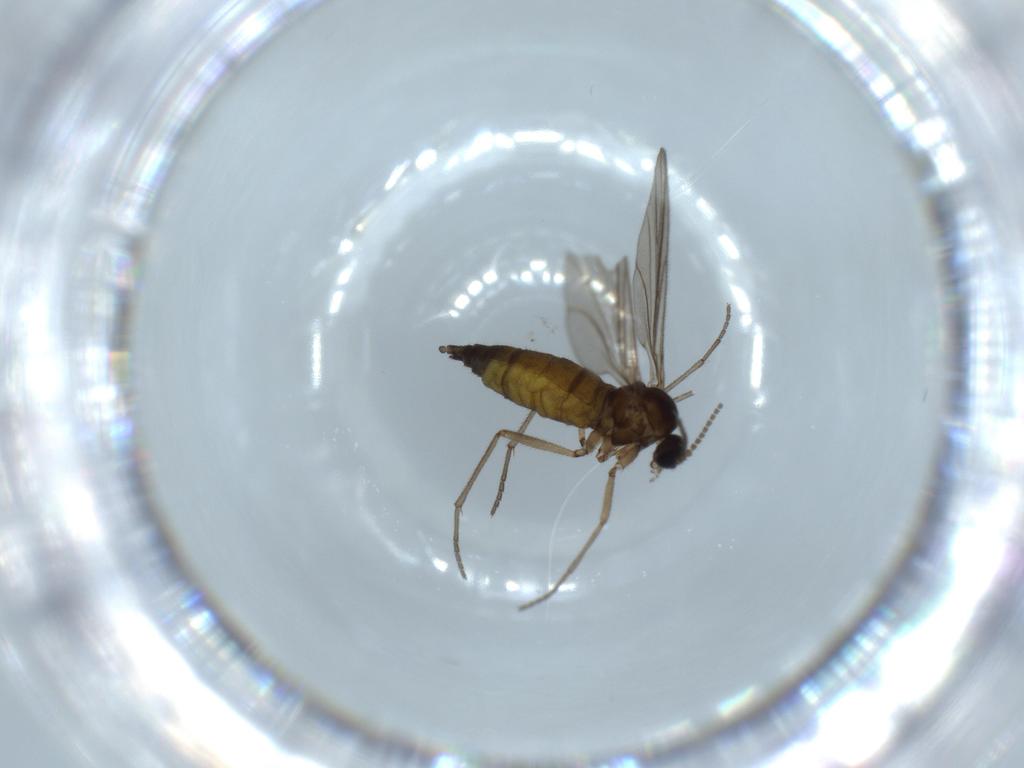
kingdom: Animalia
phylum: Arthropoda
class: Insecta
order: Diptera
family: Sciaridae
